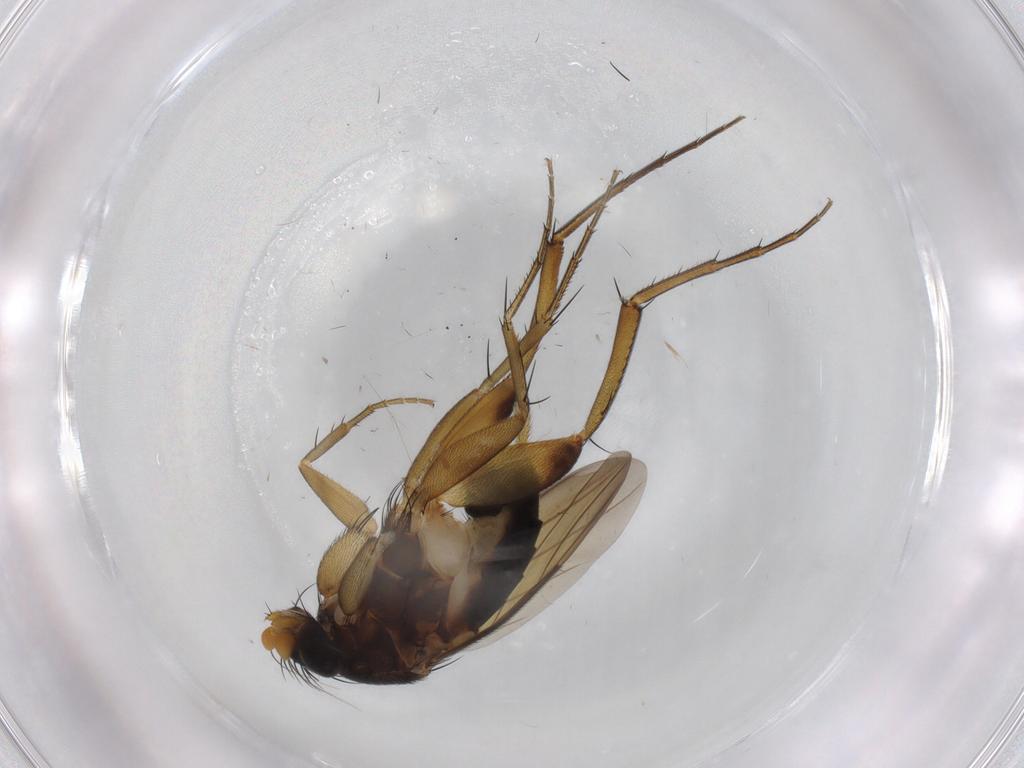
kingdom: Animalia
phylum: Arthropoda
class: Insecta
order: Diptera
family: Phoridae
